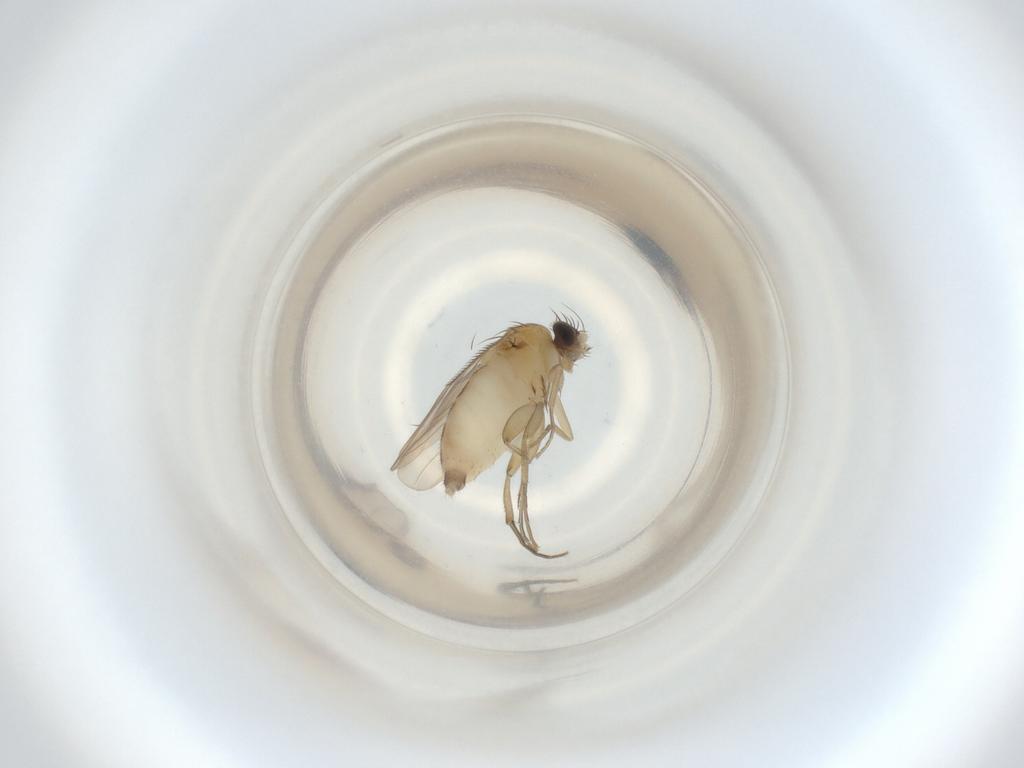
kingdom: Animalia
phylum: Arthropoda
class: Insecta
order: Diptera
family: Phoridae
